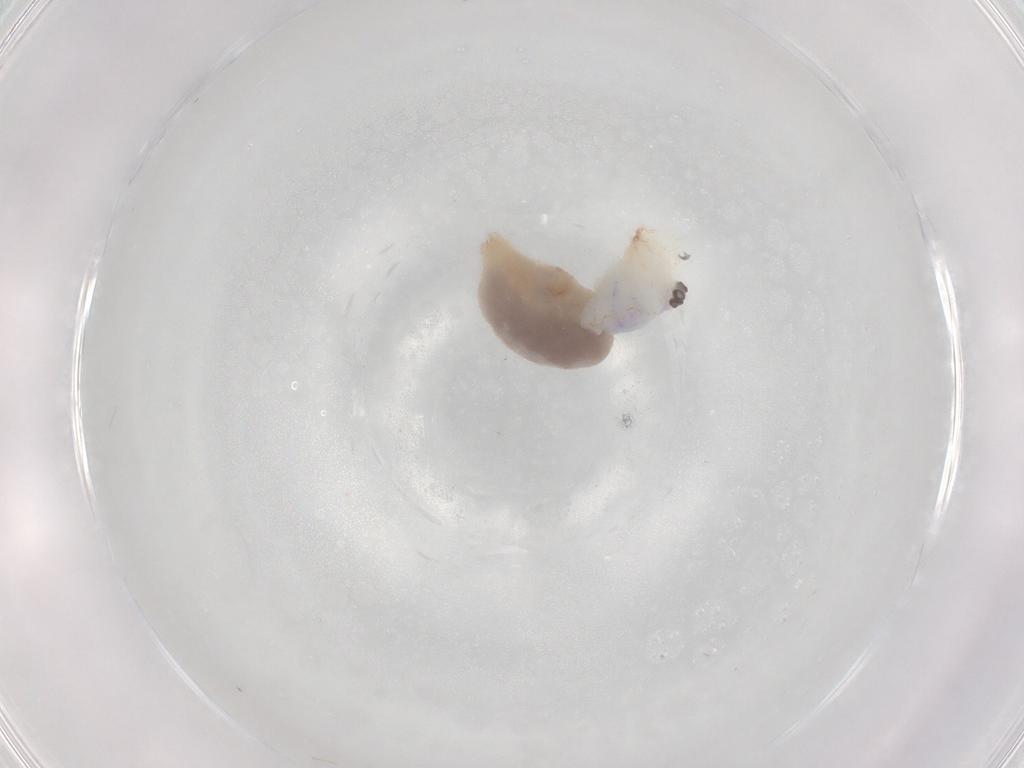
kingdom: Animalia
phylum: Arthropoda
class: Arachnida
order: Araneae
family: Pholcidae
